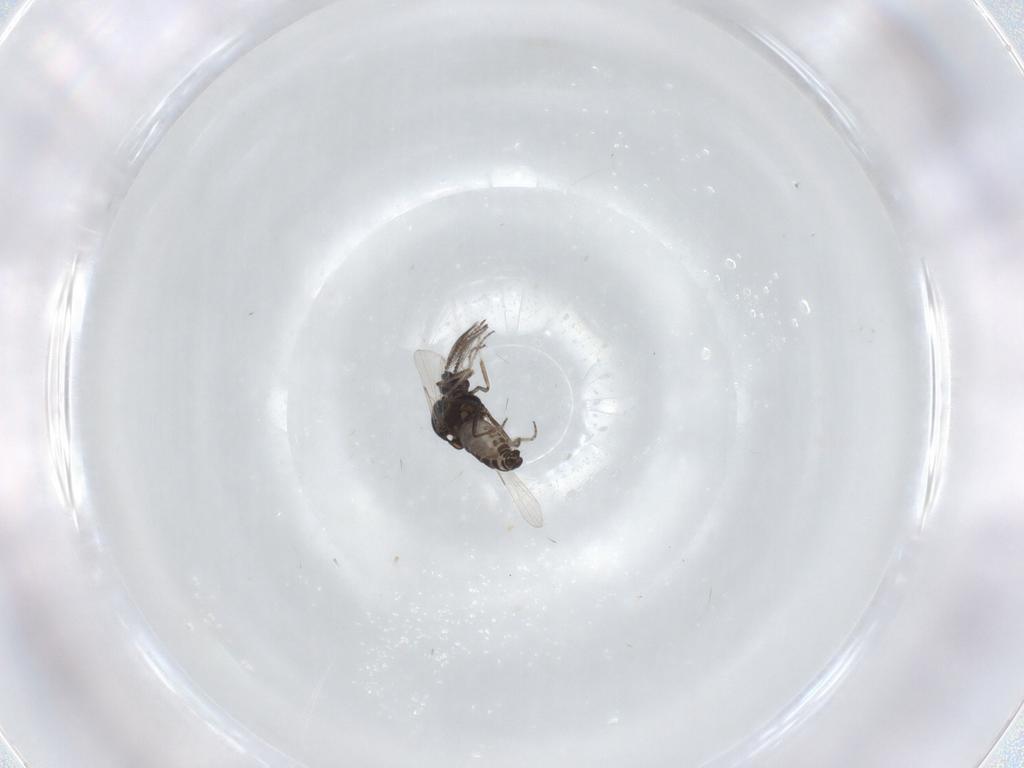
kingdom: Animalia
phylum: Arthropoda
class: Insecta
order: Diptera
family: Ceratopogonidae
